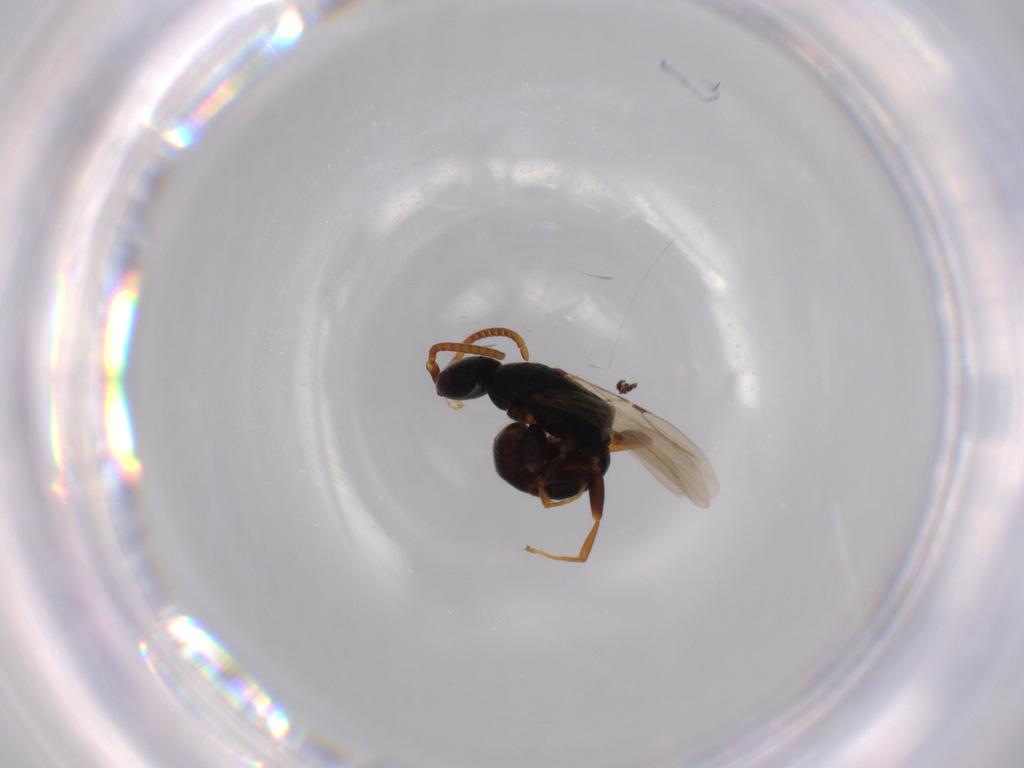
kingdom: Animalia
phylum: Arthropoda
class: Insecta
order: Hymenoptera
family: Bethylidae
